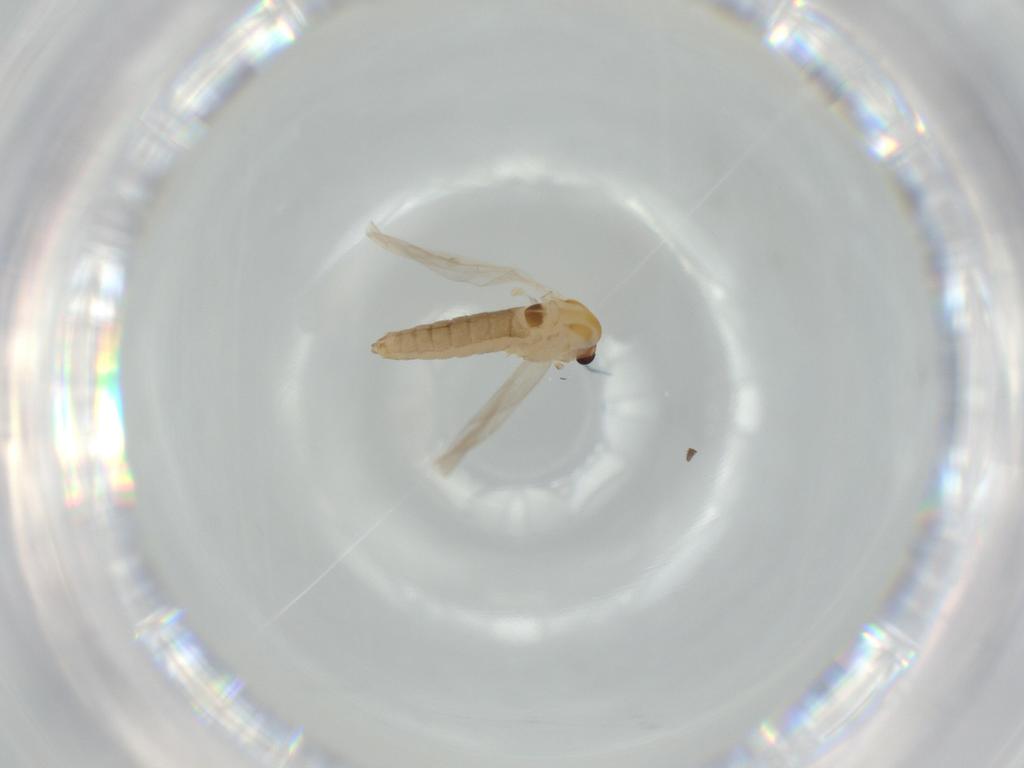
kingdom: Animalia
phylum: Arthropoda
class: Insecta
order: Diptera
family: Chironomidae
